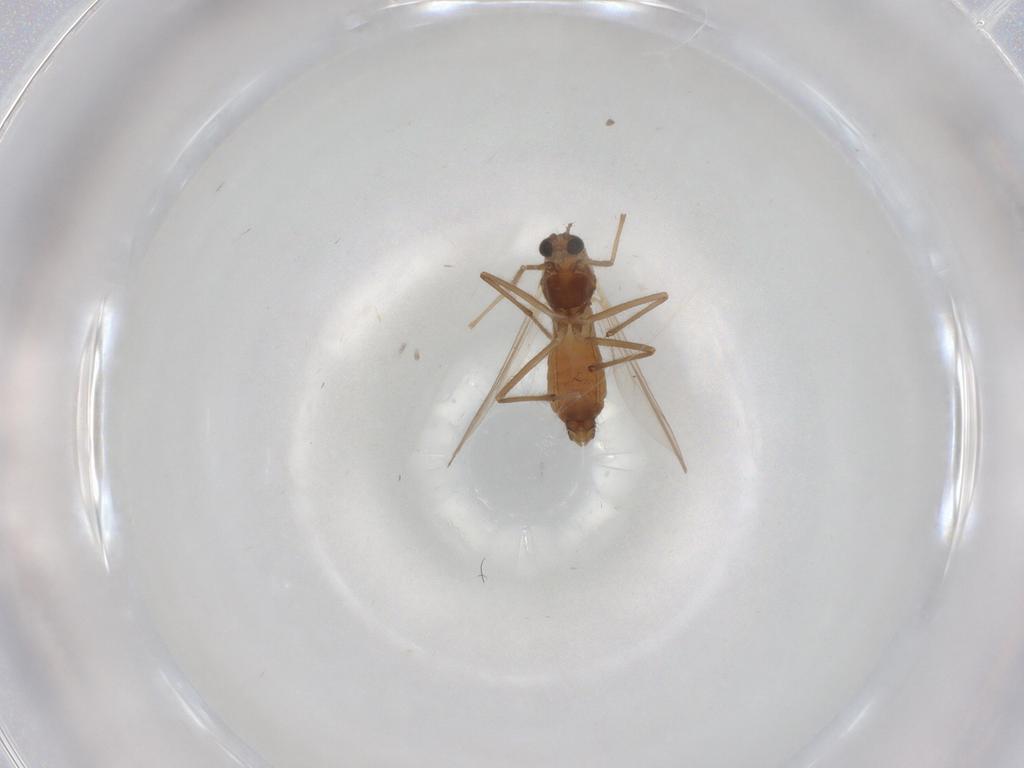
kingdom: Animalia
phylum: Arthropoda
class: Insecta
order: Diptera
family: Chironomidae
